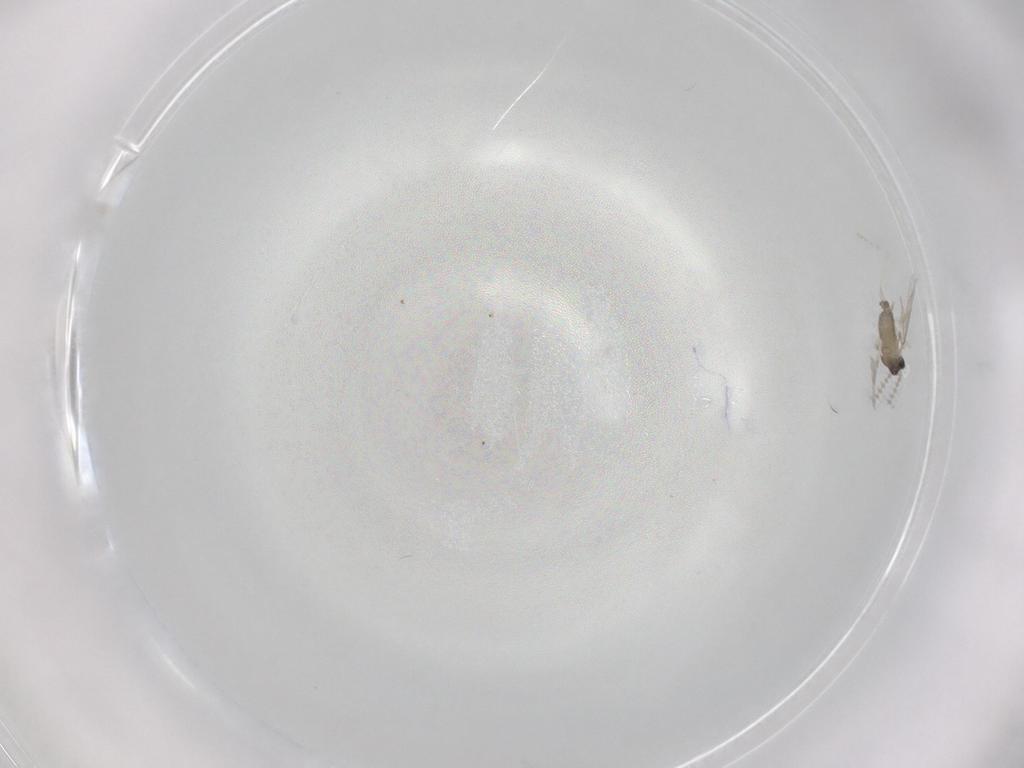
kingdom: Animalia
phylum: Arthropoda
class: Insecta
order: Diptera
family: Cecidomyiidae
